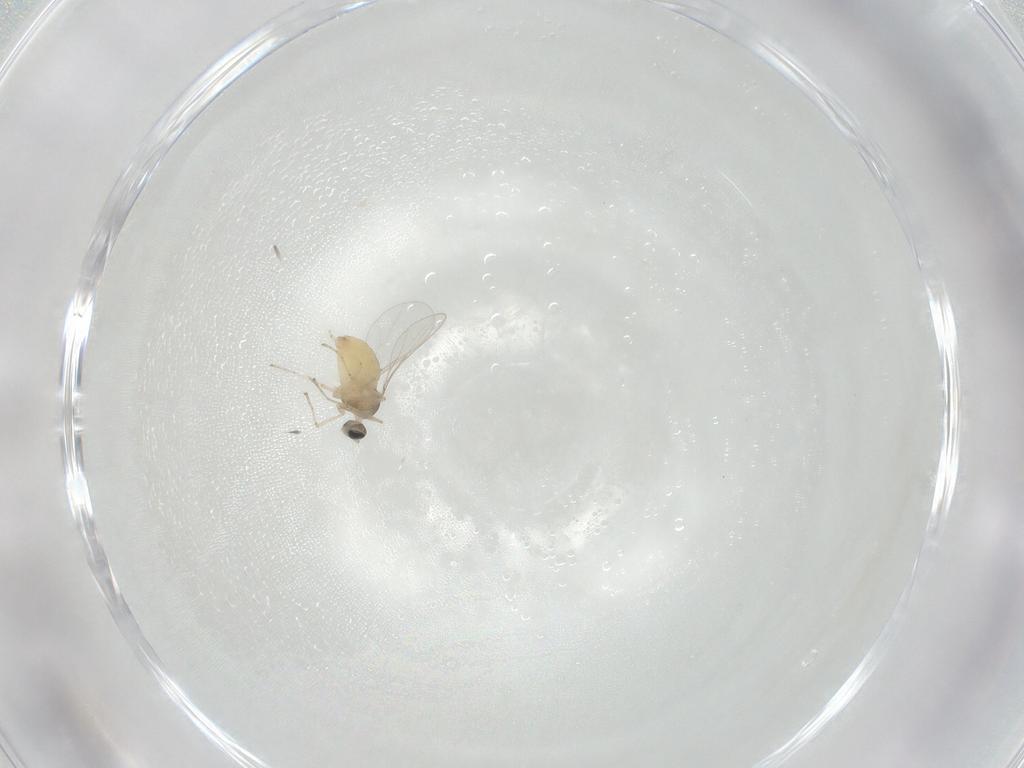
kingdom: Animalia
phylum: Arthropoda
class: Insecta
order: Diptera
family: Cecidomyiidae
